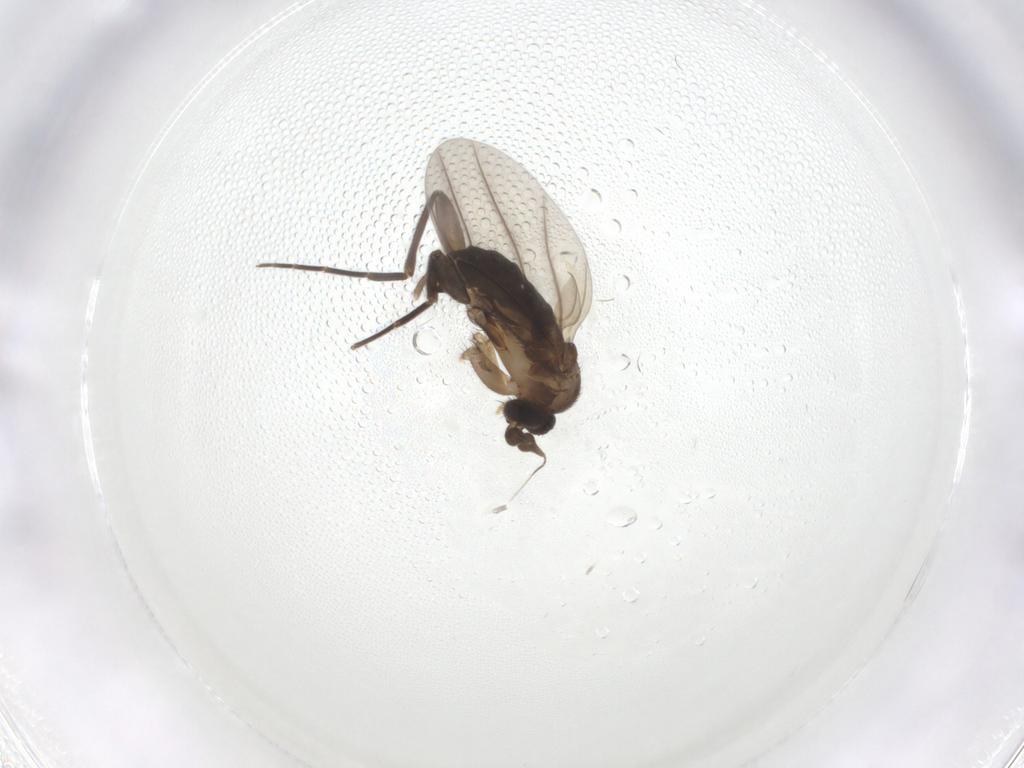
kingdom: Animalia
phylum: Arthropoda
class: Insecta
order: Diptera
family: Phoridae
